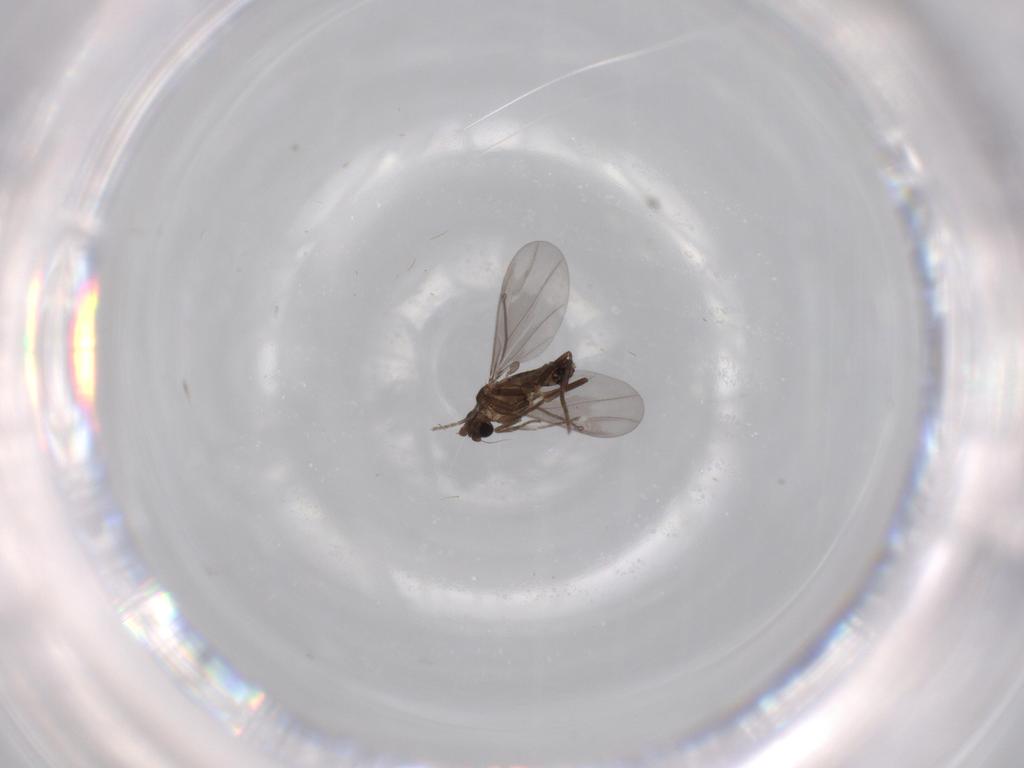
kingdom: Animalia
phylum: Arthropoda
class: Insecta
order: Diptera
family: Phoridae
